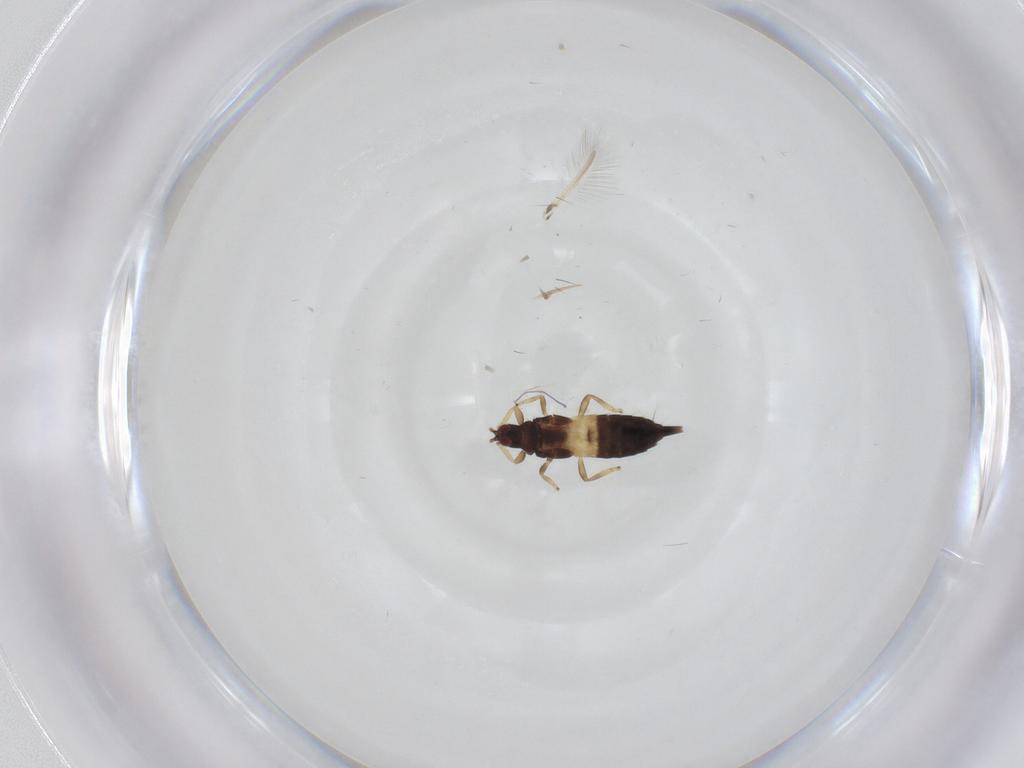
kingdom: Animalia
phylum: Arthropoda
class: Insecta
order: Thysanoptera
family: Phlaeothripidae
